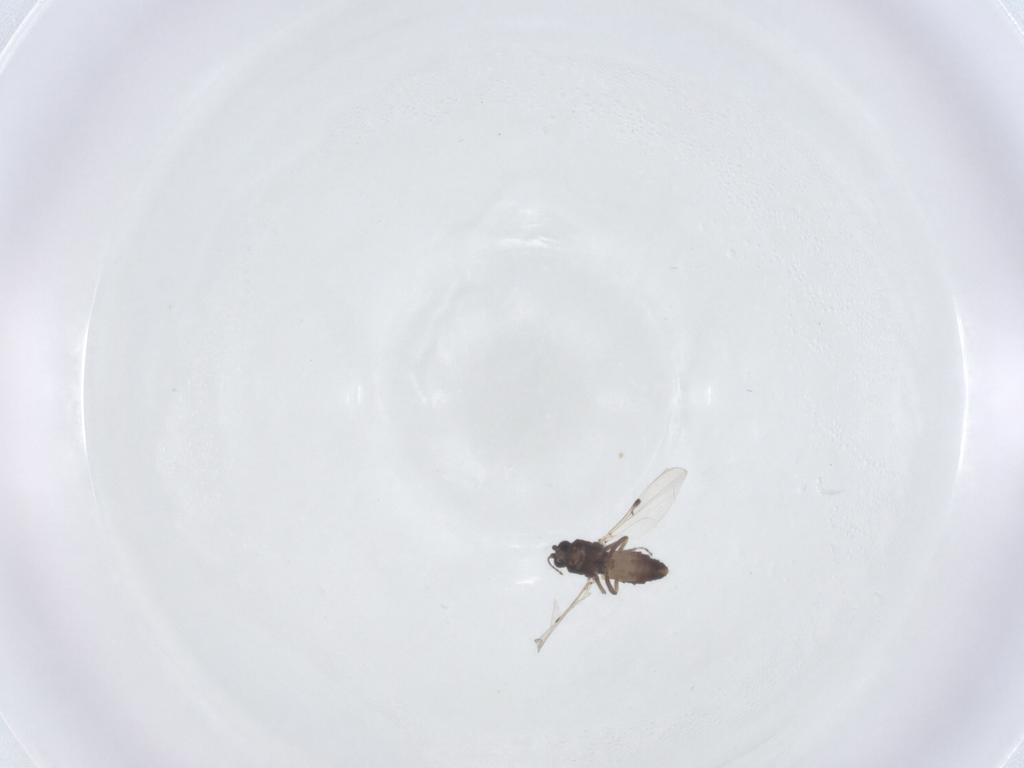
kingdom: Animalia
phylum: Arthropoda
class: Insecta
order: Diptera
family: Ceratopogonidae
